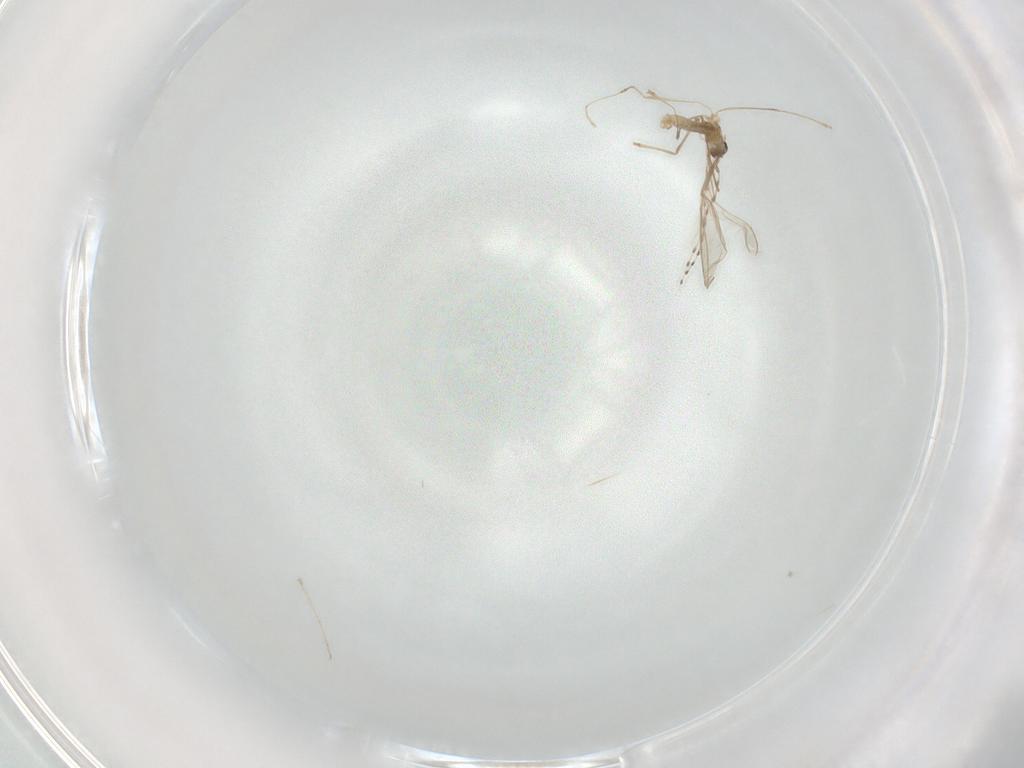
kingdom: Animalia
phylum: Arthropoda
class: Insecta
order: Diptera
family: Cecidomyiidae
